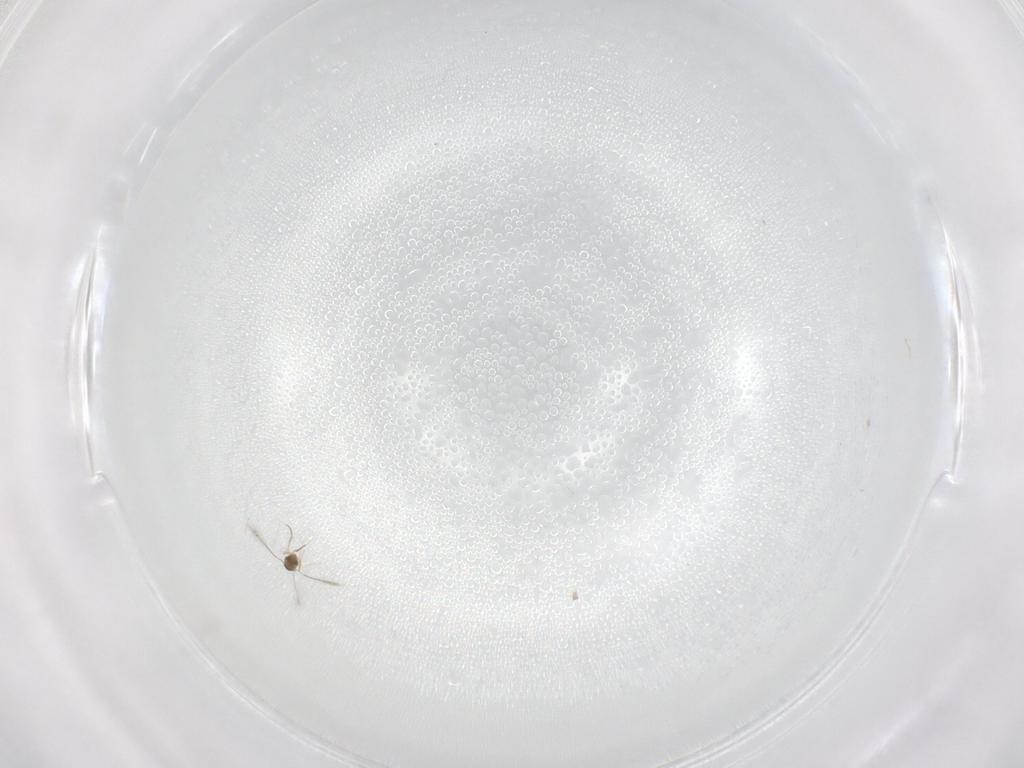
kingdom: Animalia
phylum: Arthropoda
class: Insecta
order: Hymenoptera
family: Formicidae
